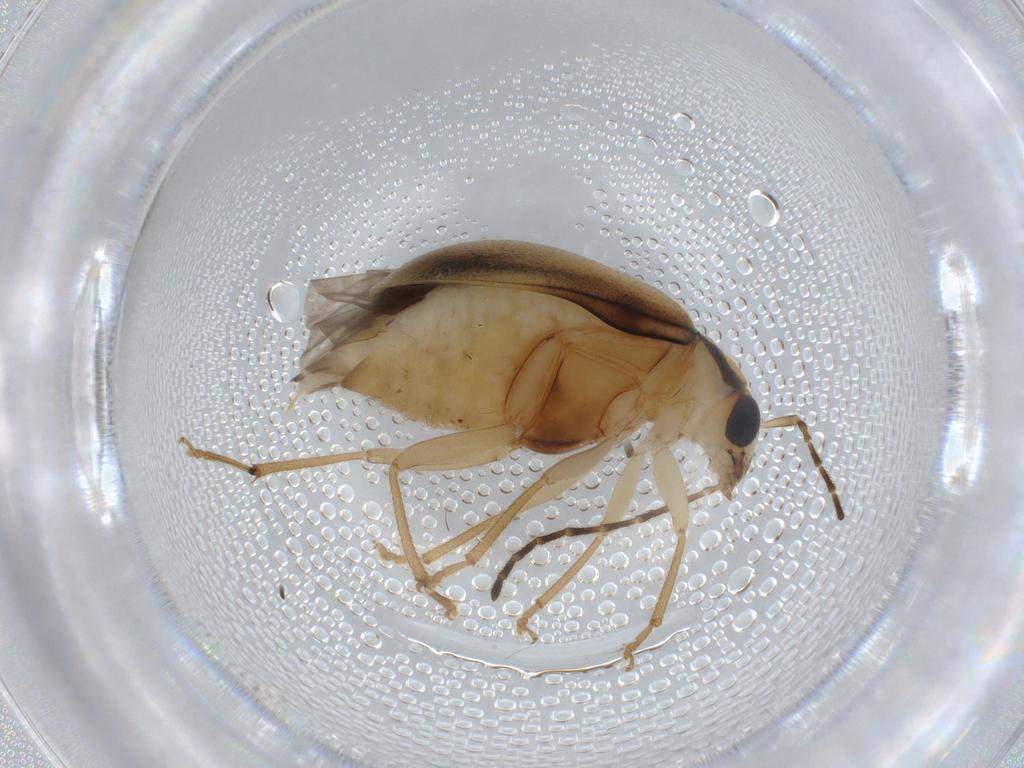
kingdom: Animalia
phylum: Arthropoda
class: Insecta
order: Coleoptera
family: Chrysomelidae
